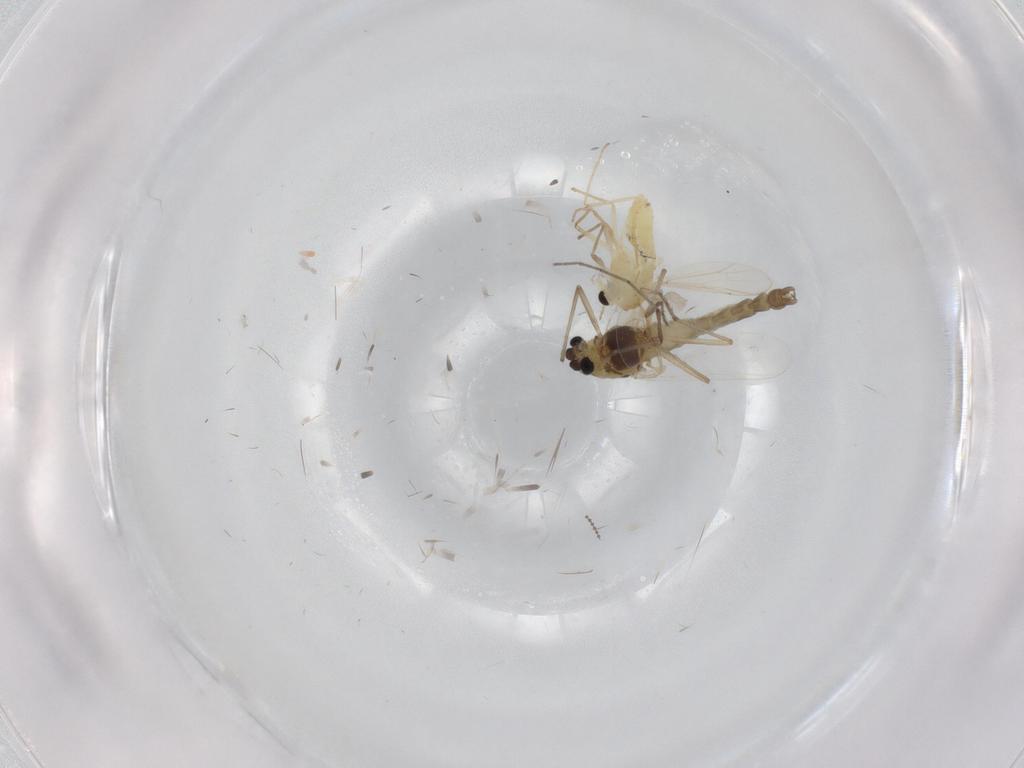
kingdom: Animalia
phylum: Arthropoda
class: Insecta
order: Diptera
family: Chironomidae
